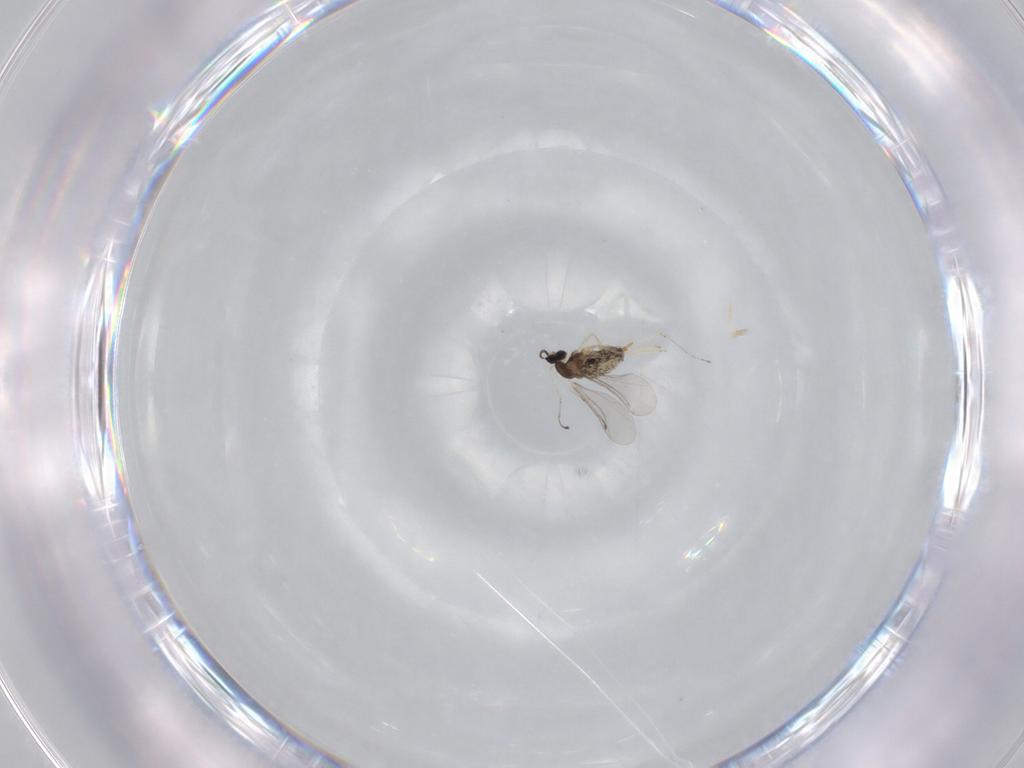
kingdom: Animalia
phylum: Arthropoda
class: Insecta
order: Diptera
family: Cecidomyiidae
